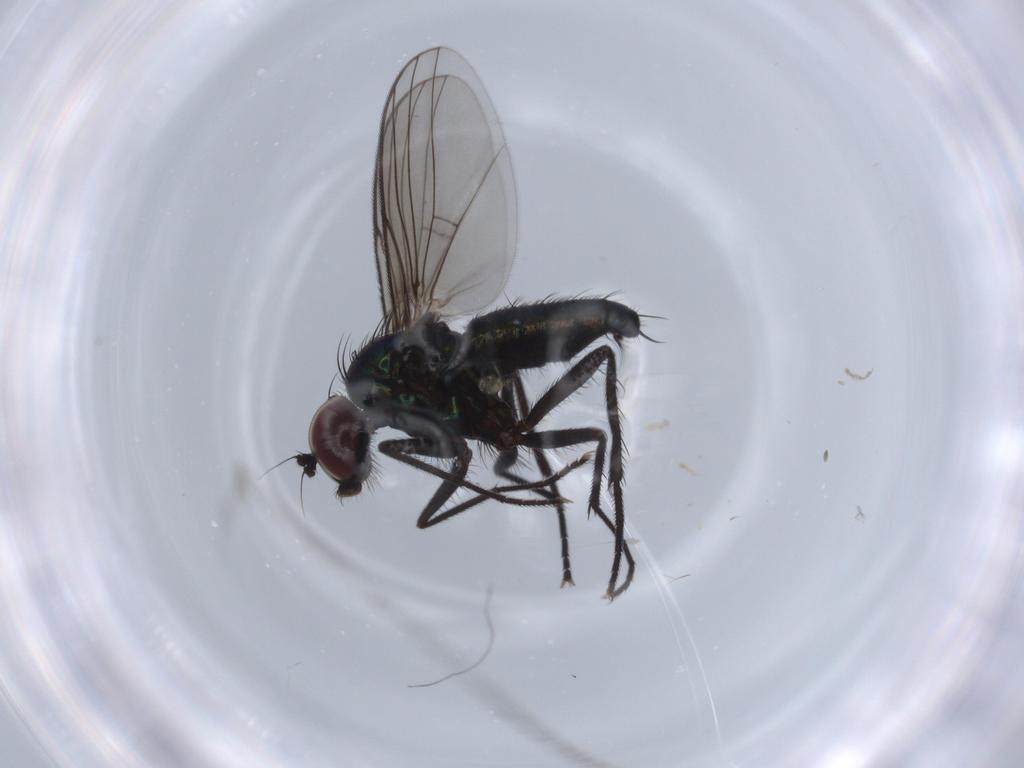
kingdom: Animalia
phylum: Arthropoda
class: Insecta
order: Diptera
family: Dolichopodidae
